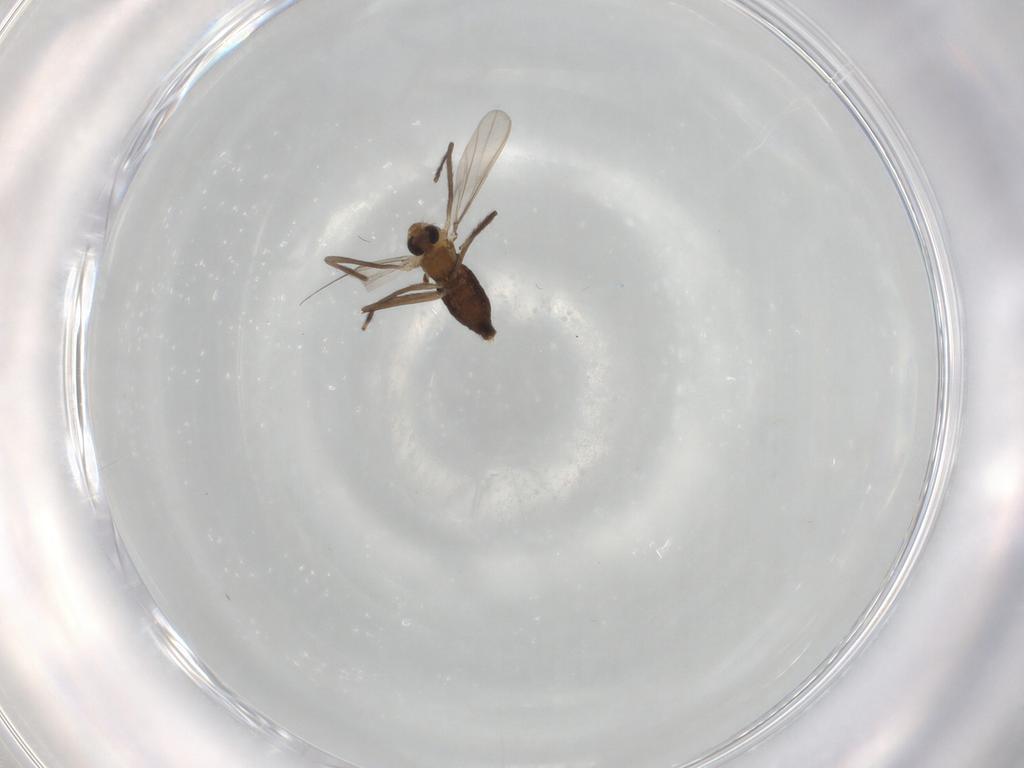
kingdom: Animalia
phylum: Arthropoda
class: Insecta
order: Diptera
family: Chironomidae
